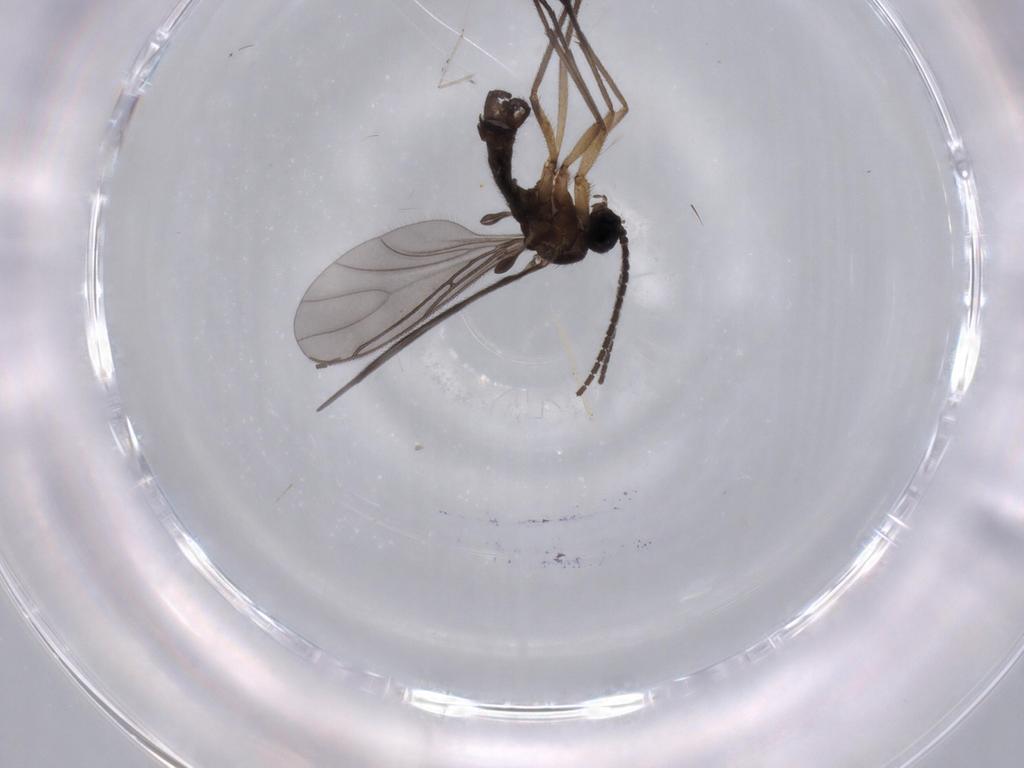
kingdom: Animalia
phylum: Arthropoda
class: Insecta
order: Diptera
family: Sciaridae
